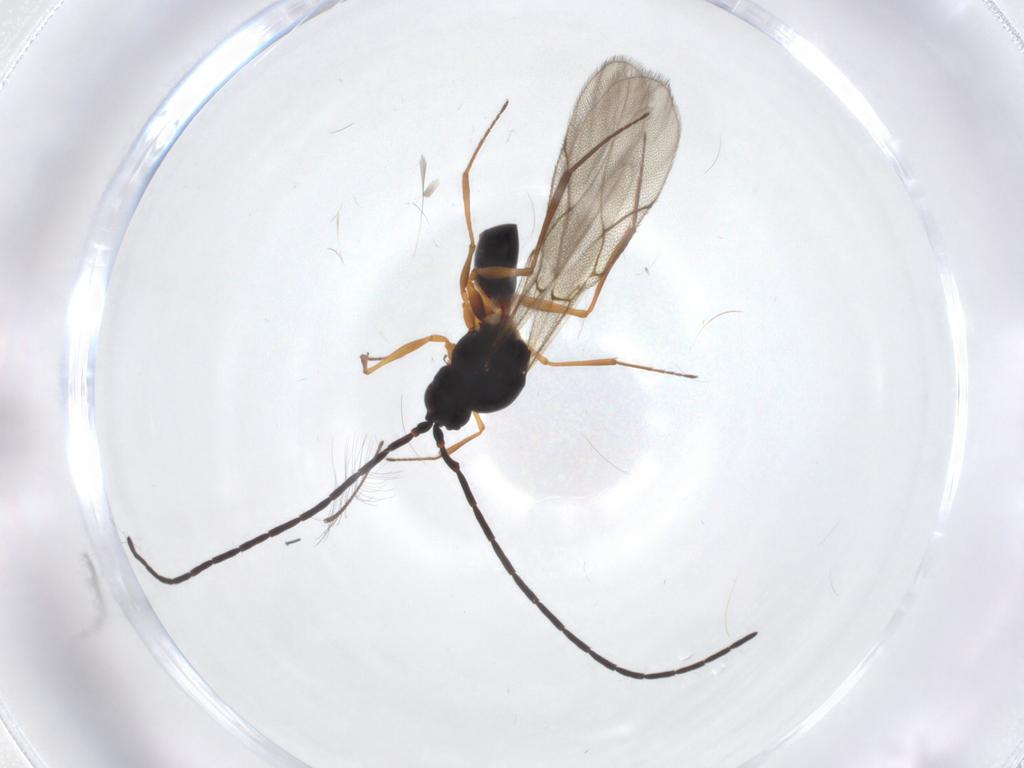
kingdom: Animalia
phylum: Arthropoda
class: Insecta
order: Hymenoptera
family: Figitidae
